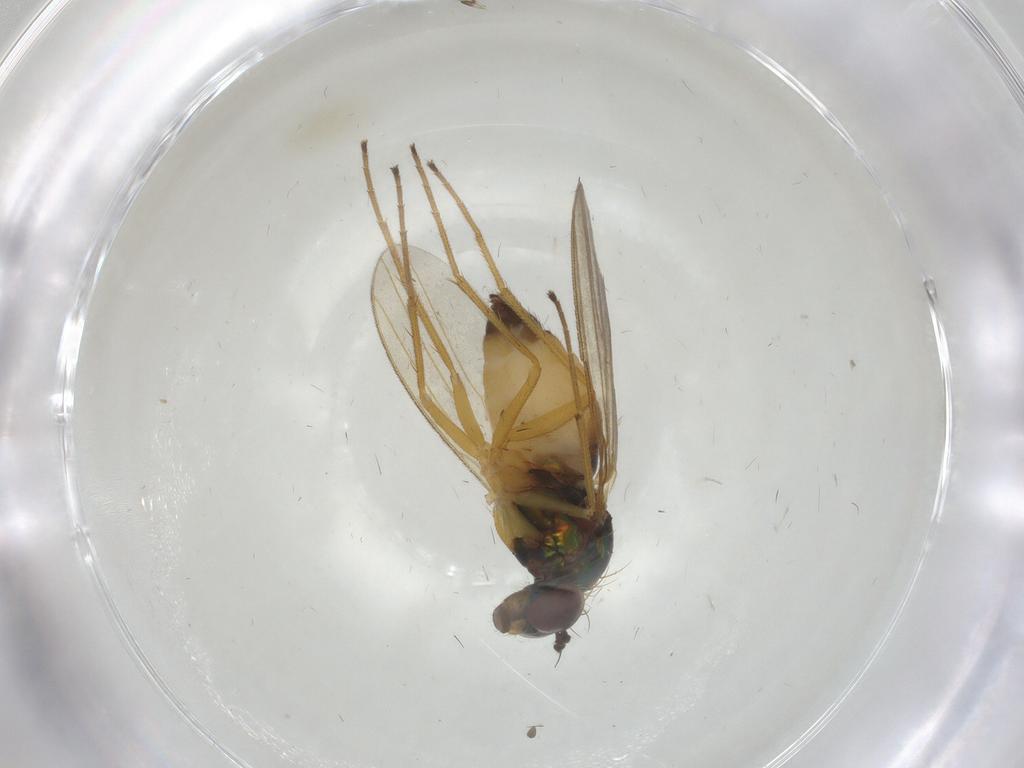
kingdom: Animalia
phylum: Arthropoda
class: Insecta
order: Diptera
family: Dolichopodidae
